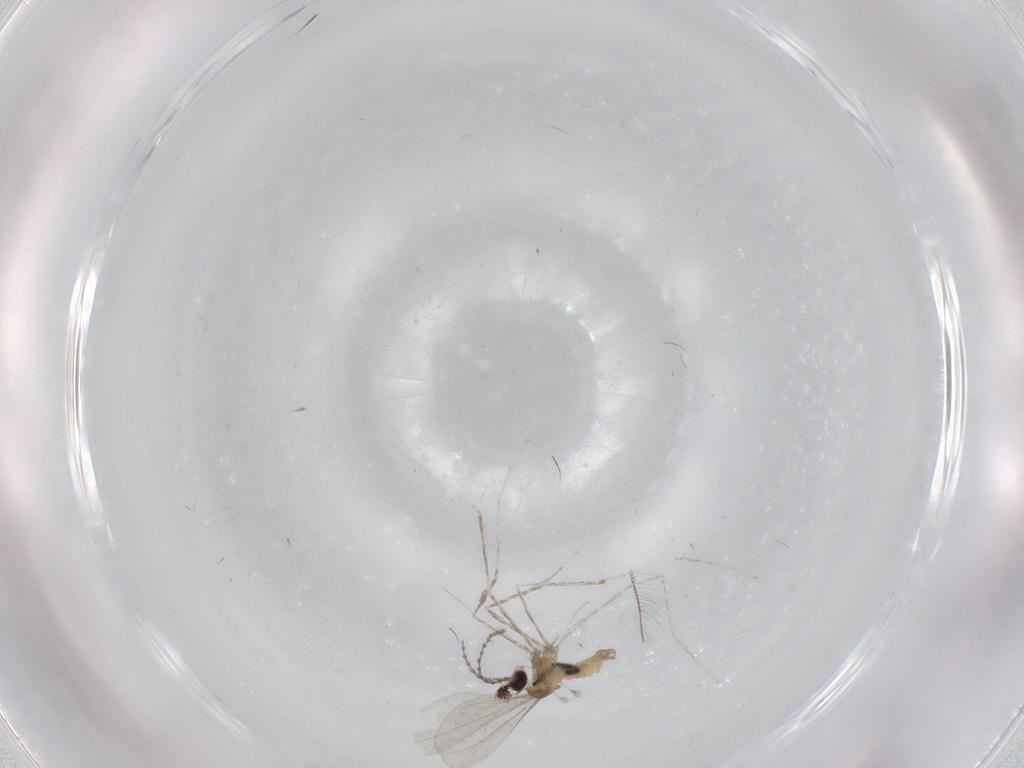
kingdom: Animalia
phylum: Arthropoda
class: Insecta
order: Diptera
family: Cecidomyiidae
